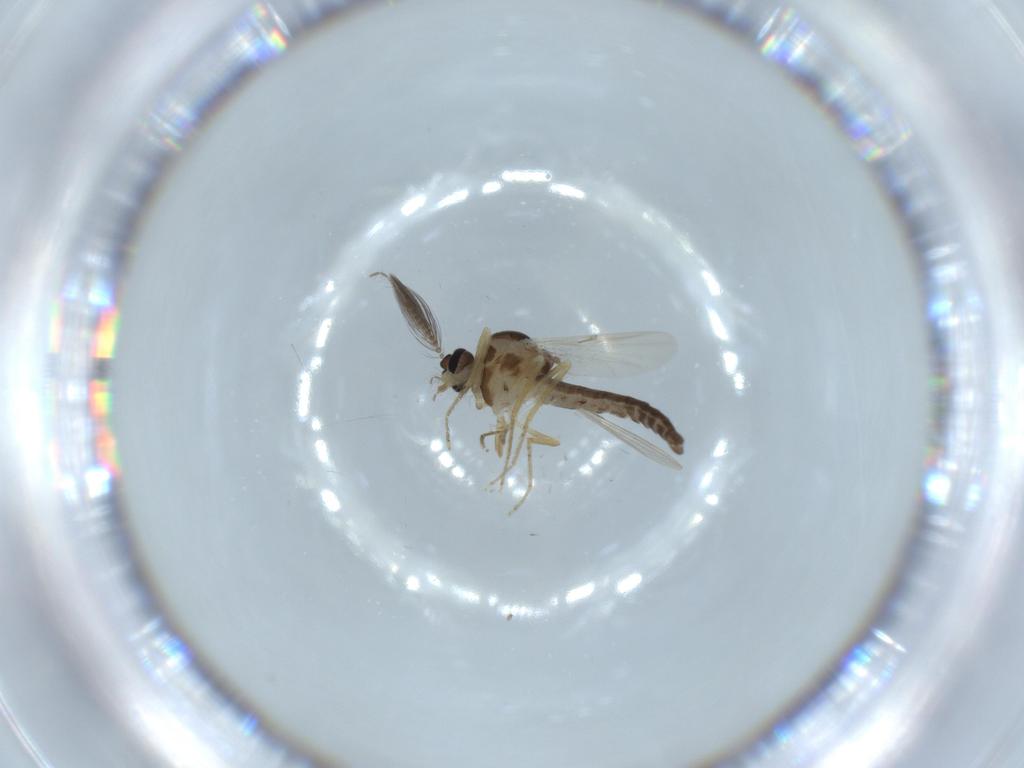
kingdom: Animalia
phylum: Arthropoda
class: Insecta
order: Diptera
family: Ceratopogonidae
